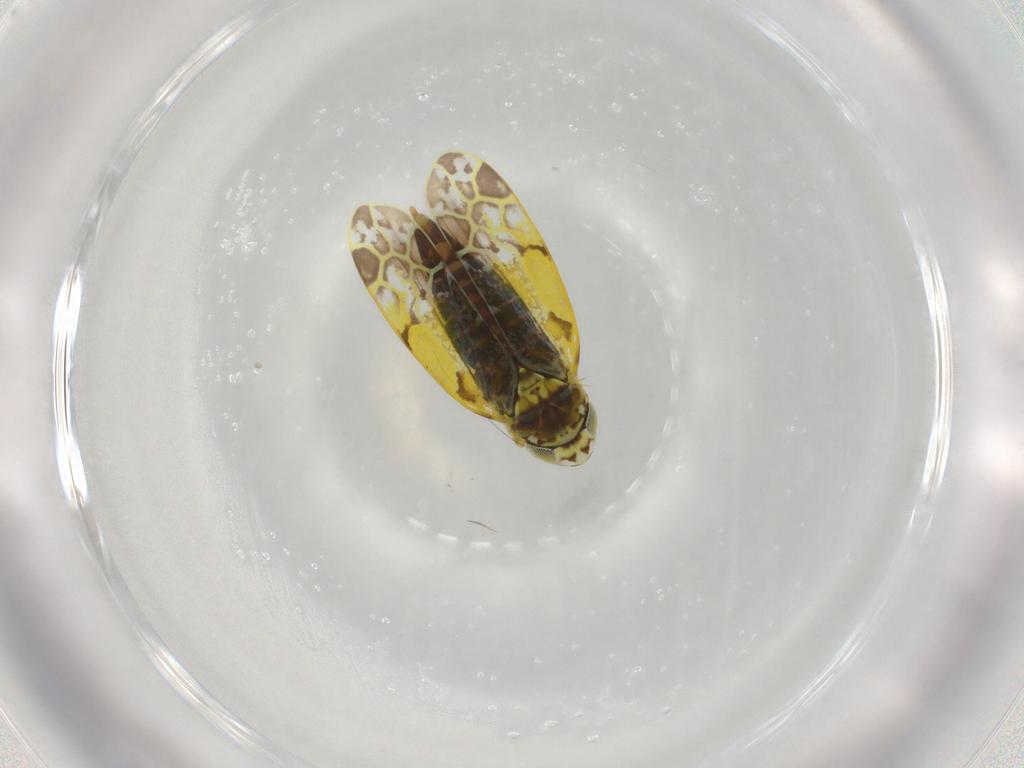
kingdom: Animalia
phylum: Arthropoda
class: Insecta
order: Hemiptera
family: Cicadellidae
